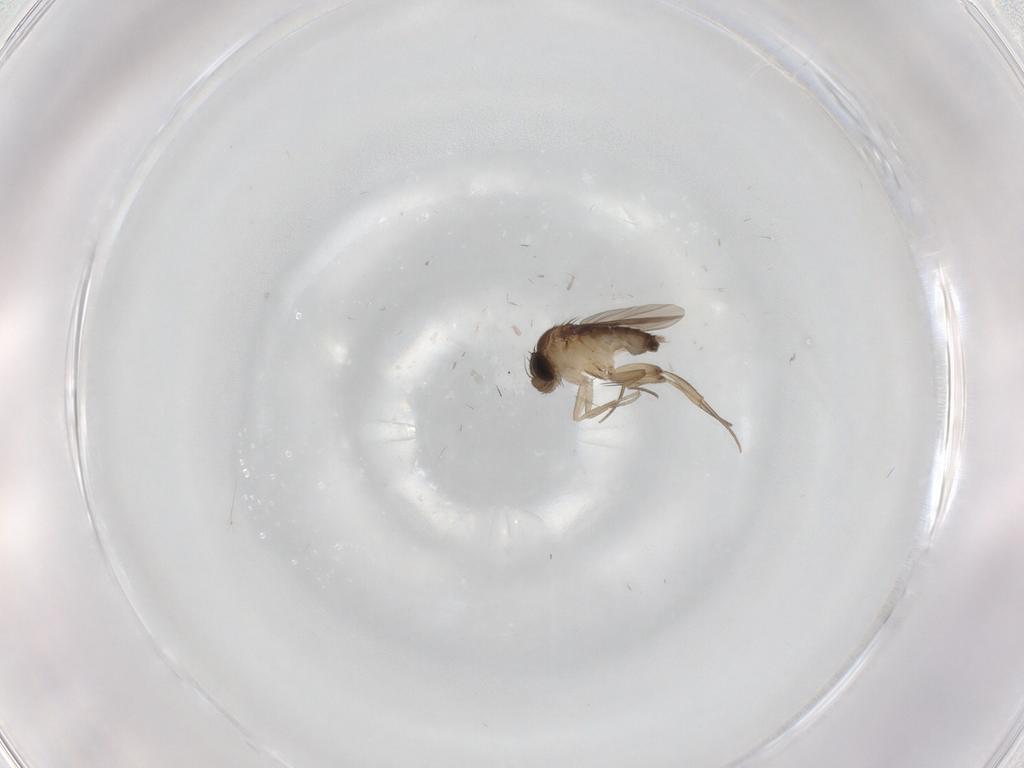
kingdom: Animalia
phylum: Arthropoda
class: Insecta
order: Diptera
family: Phoridae
